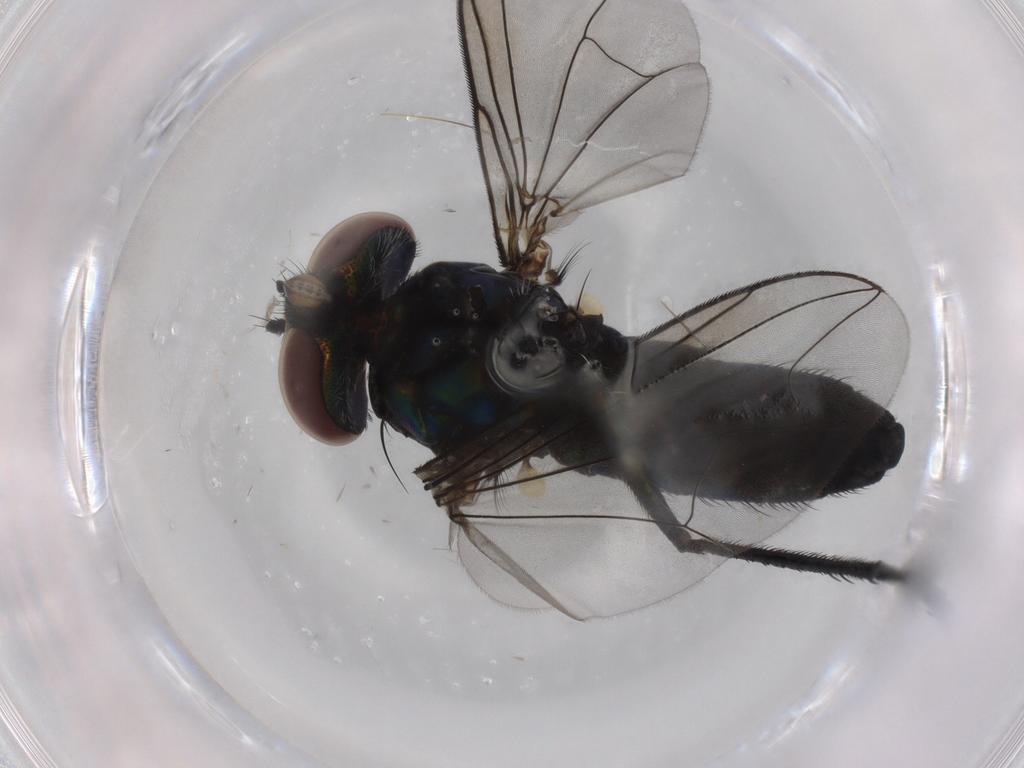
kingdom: Animalia
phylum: Arthropoda
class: Insecta
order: Diptera
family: Dolichopodidae
